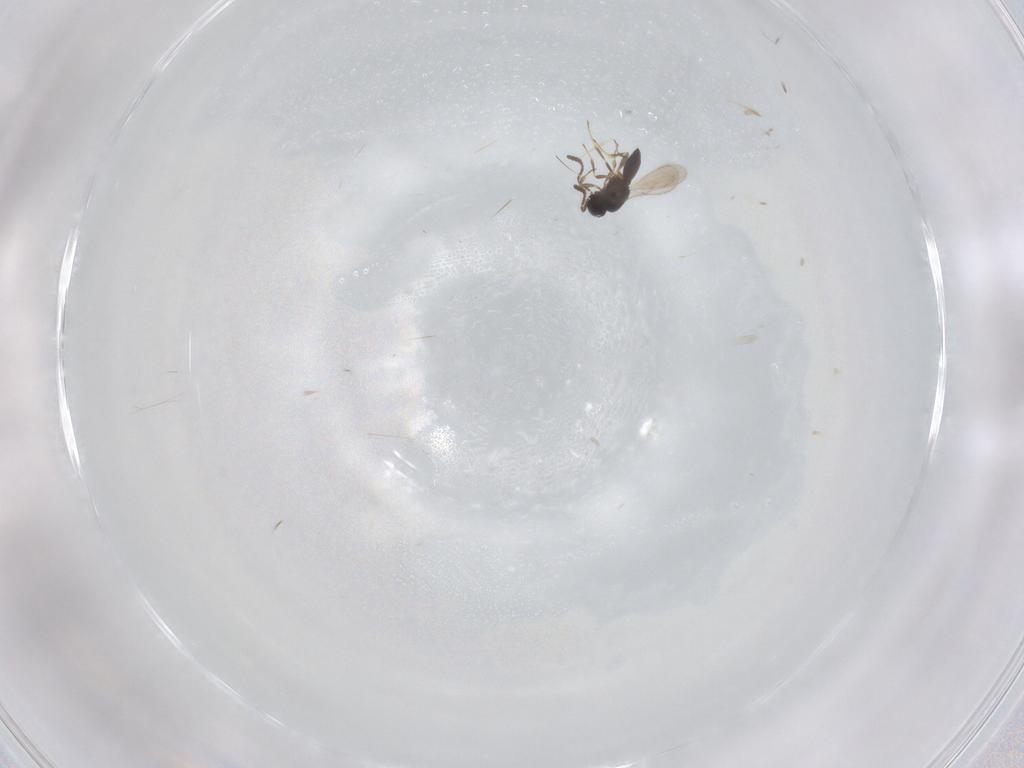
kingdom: Animalia
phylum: Arthropoda
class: Insecta
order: Hymenoptera
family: Scelionidae
